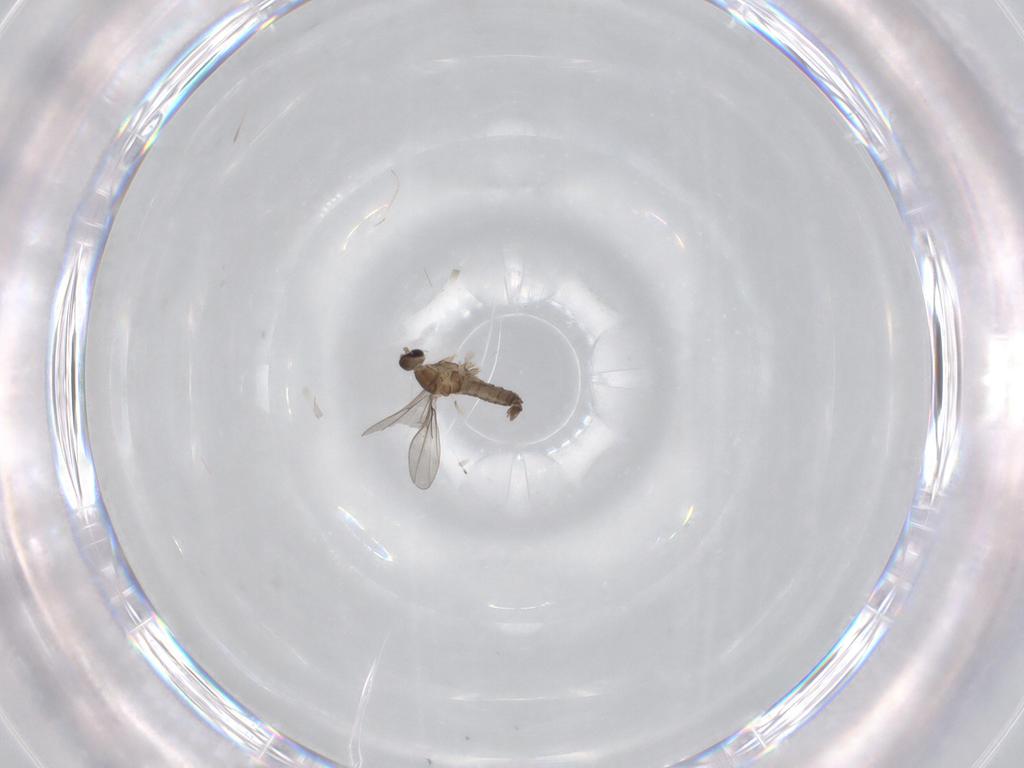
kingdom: Animalia
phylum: Arthropoda
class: Insecta
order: Diptera
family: Cecidomyiidae
